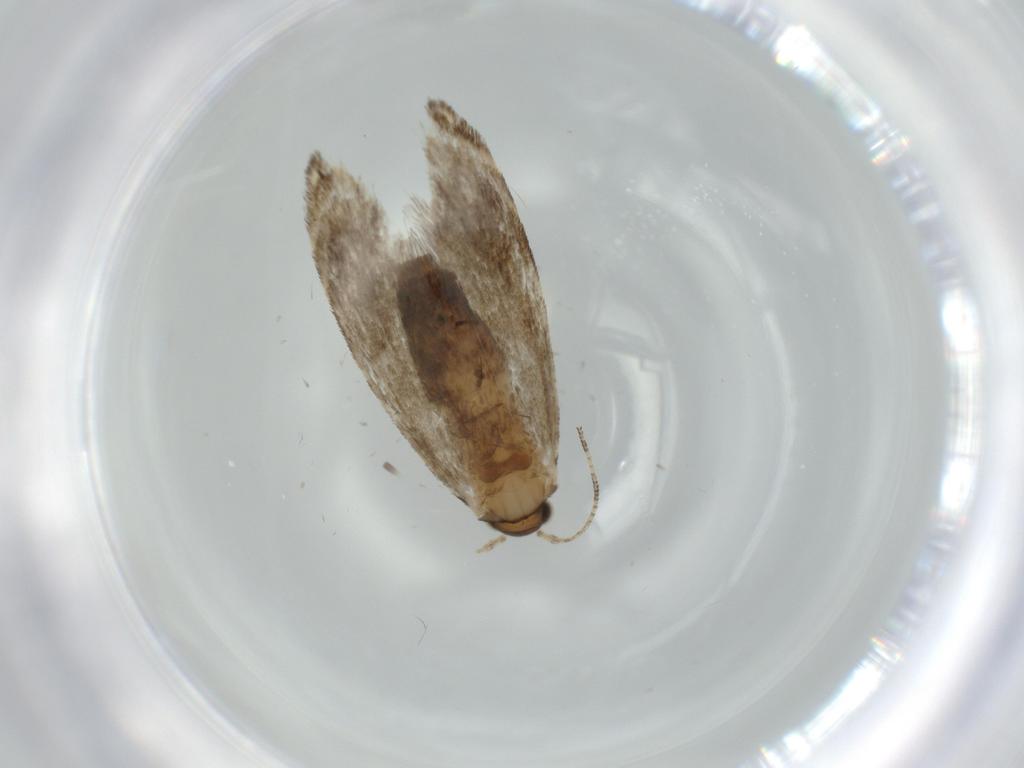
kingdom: Animalia
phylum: Arthropoda
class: Insecta
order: Lepidoptera
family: Tineidae
